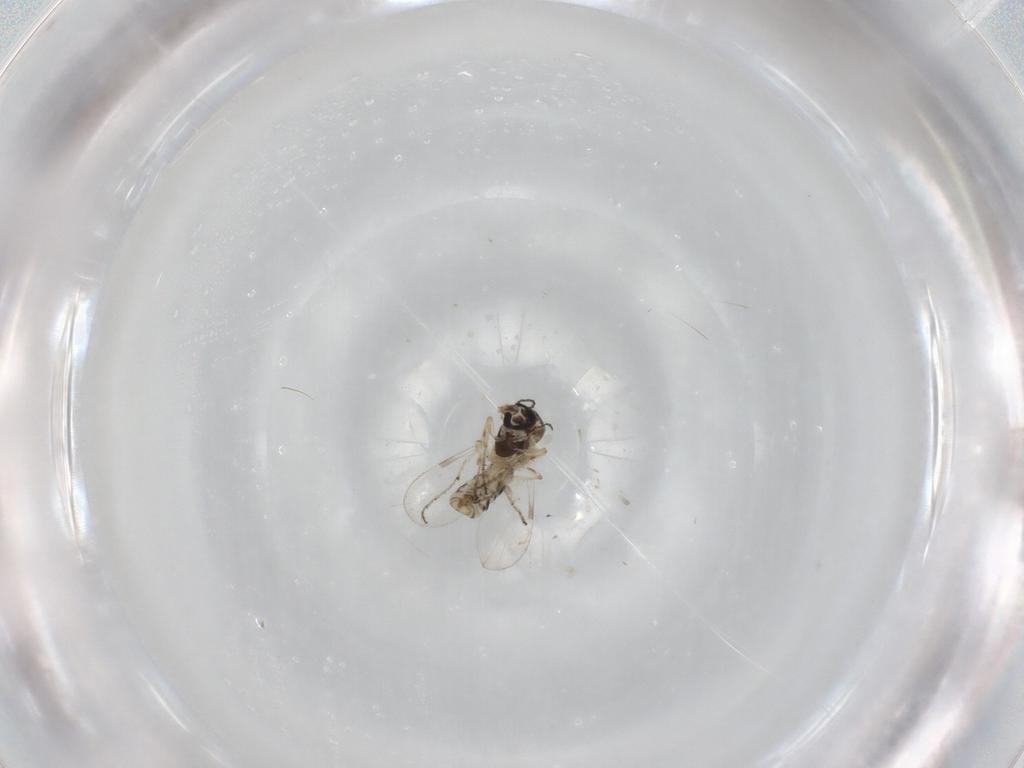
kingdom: Animalia
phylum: Arthropoda
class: Insecta
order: Diptera
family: Ceratopogonidae
